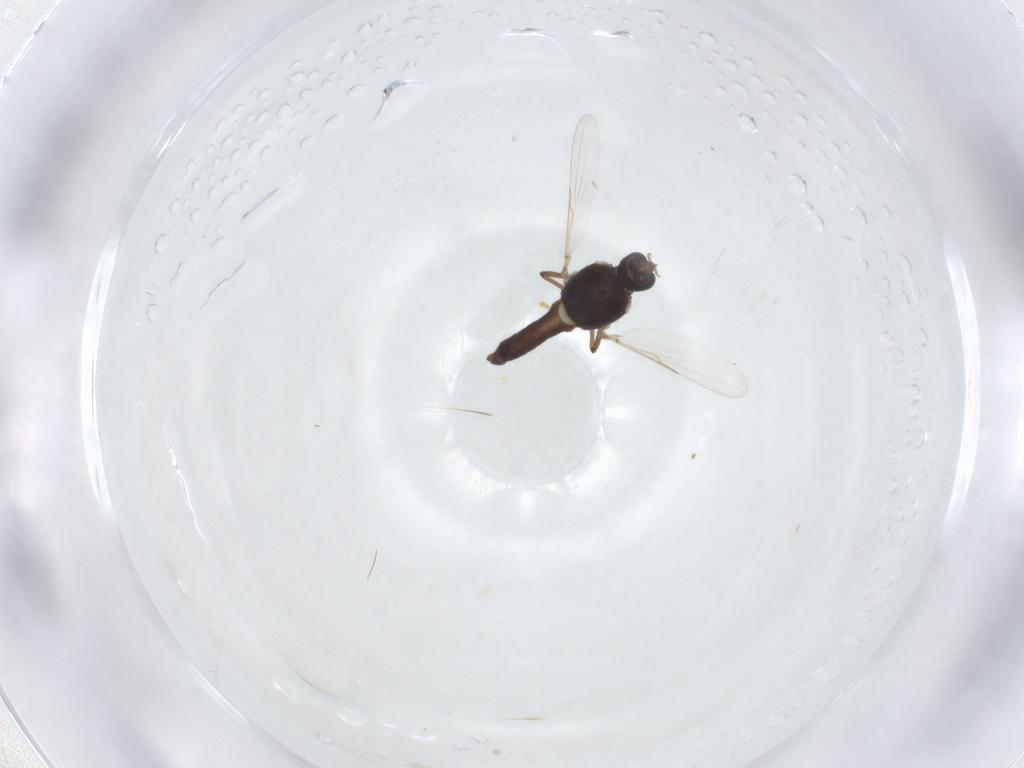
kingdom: Animalia
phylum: Arthropoda
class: Insecta
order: Diptera
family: Ceratopogonidae
